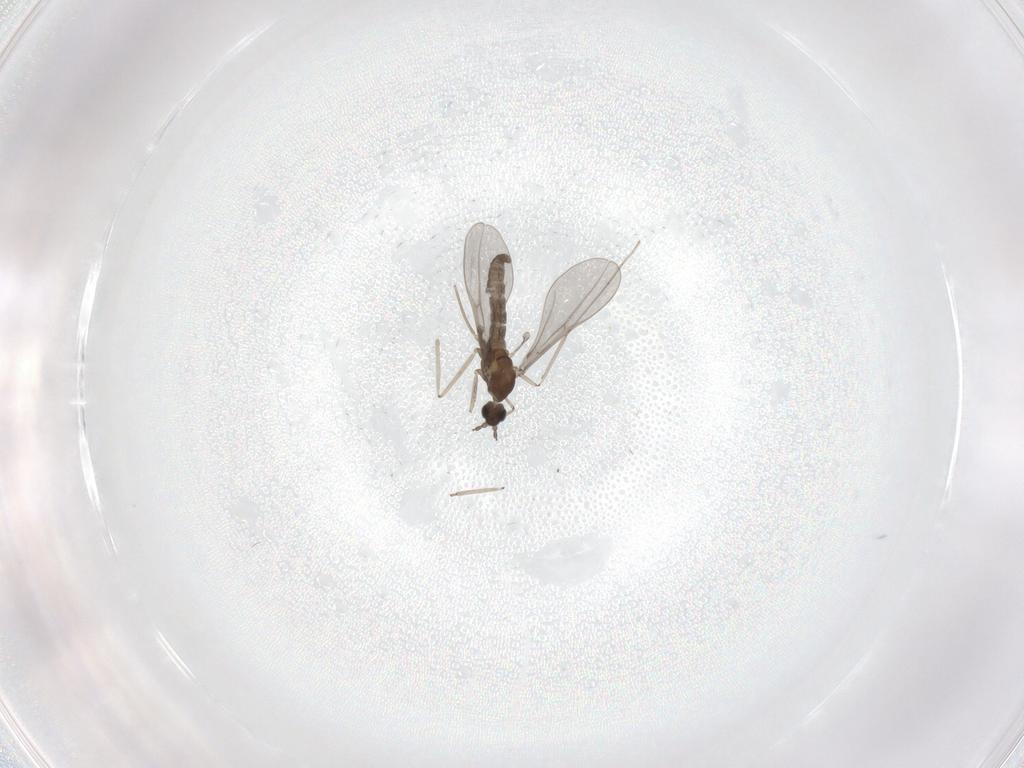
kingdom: Animalia
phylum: Arthropoda
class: Insecta
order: Diptera
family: Cecidomyiidae
